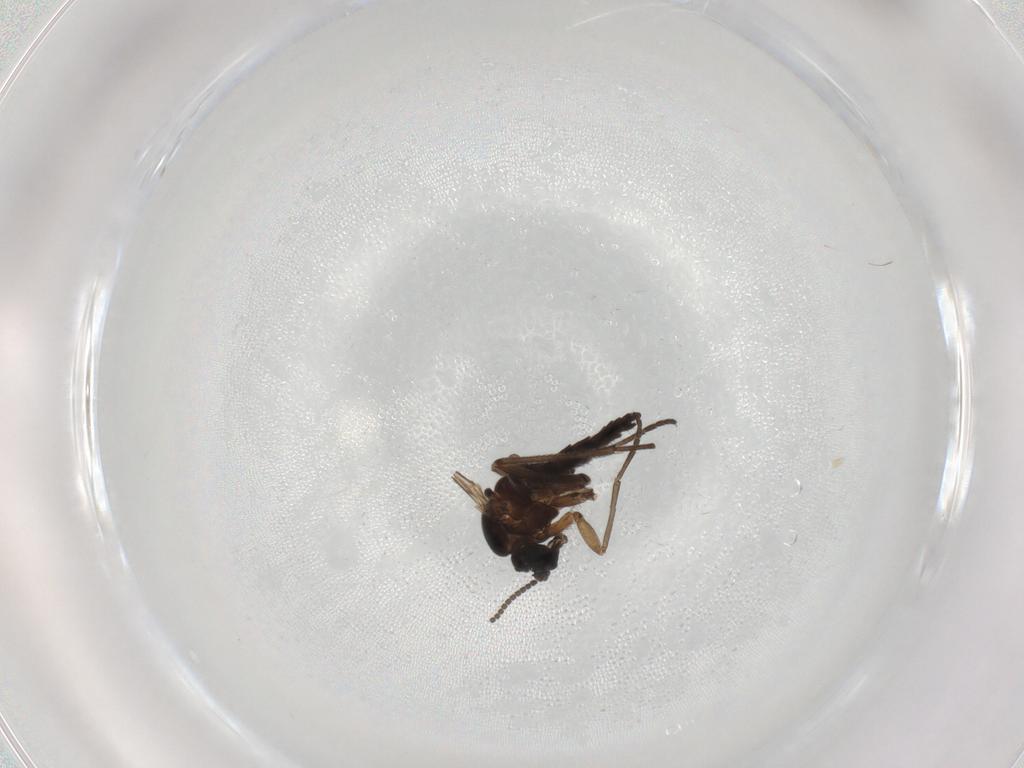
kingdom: Animalia
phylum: Arthropoda
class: Insecta
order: Diptera
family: Sciaridae
